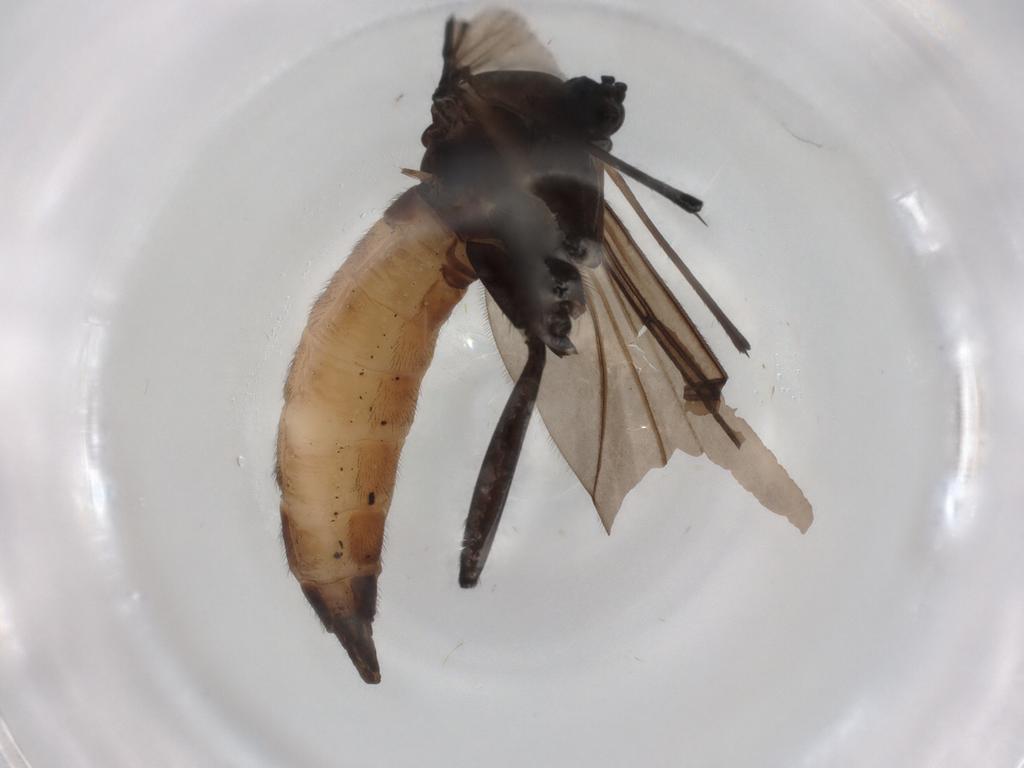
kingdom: Animalia
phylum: Arthropoda
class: Insecta
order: Diptera
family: Sciaridae
